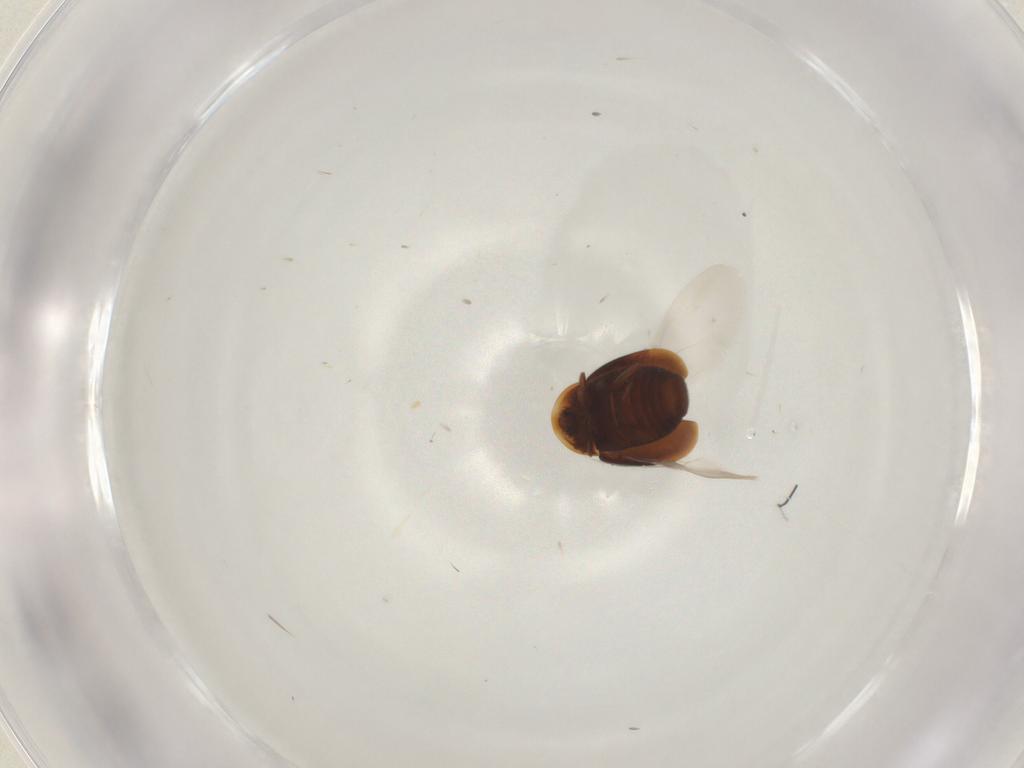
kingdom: Animalia
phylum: Arthropoda
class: Insecta
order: Coleoptera
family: Corylophidae
